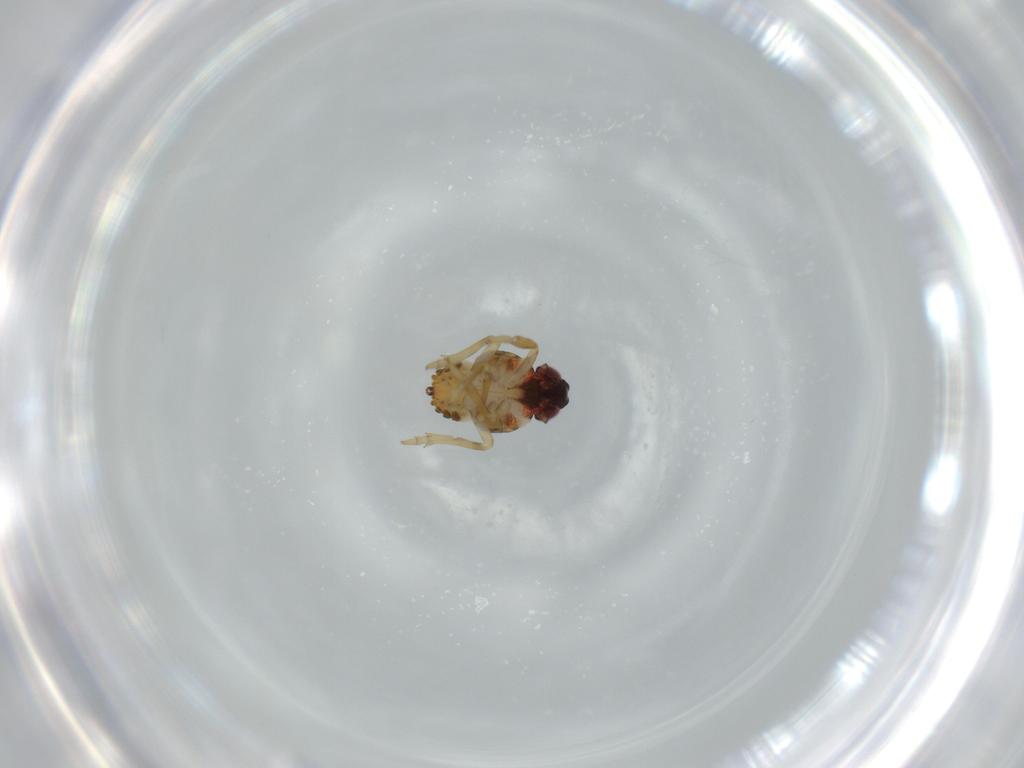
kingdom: Animalia
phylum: Arthropoda
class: Insecta
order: Hemiptera
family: Issidae
